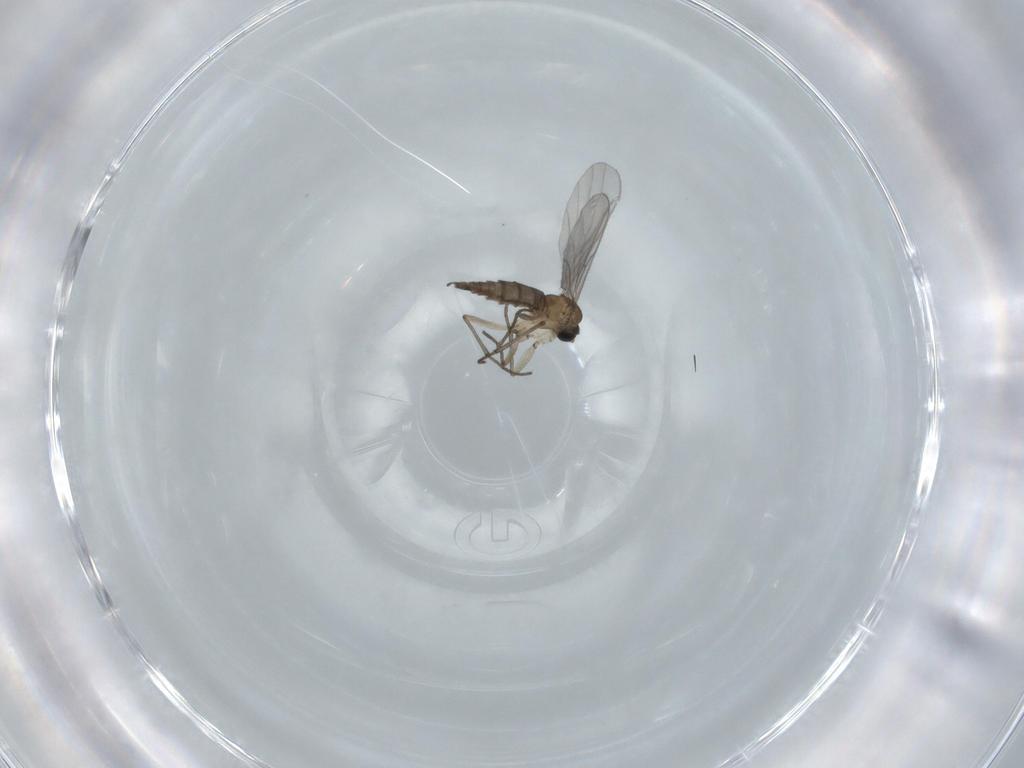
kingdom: Animalia
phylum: Arthropoda
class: Insecta
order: Diptera
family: Sciaridae
